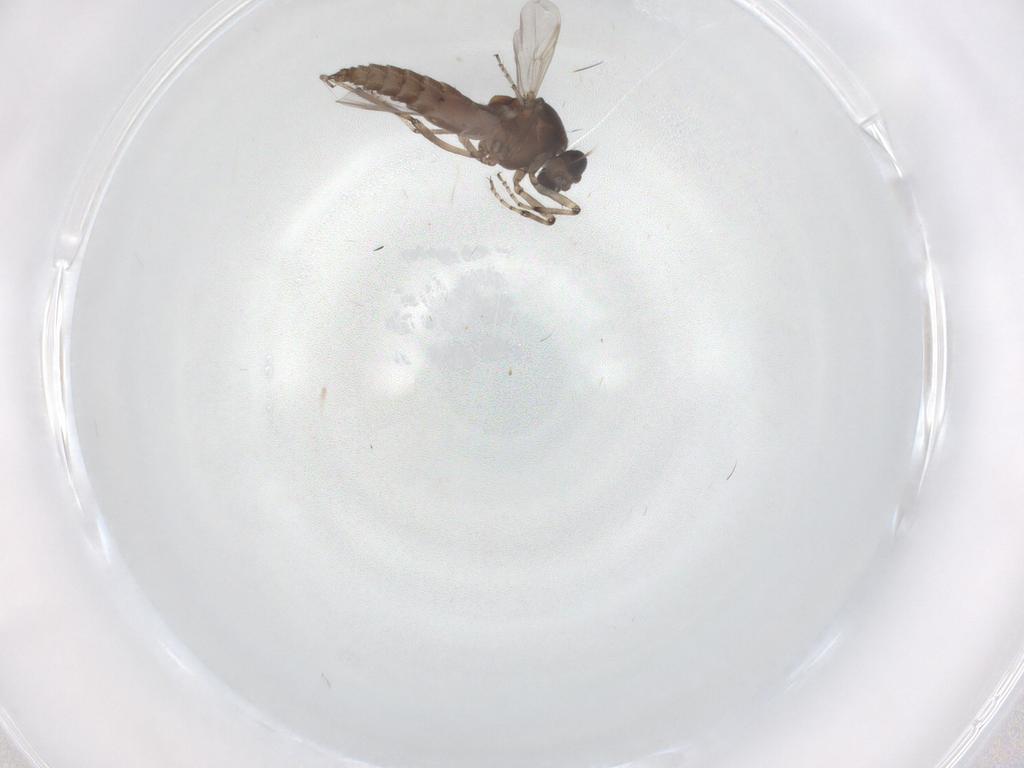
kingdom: Animalia
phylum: Arthropoda
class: Insecta
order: Diptera
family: Ceratopogonidae
